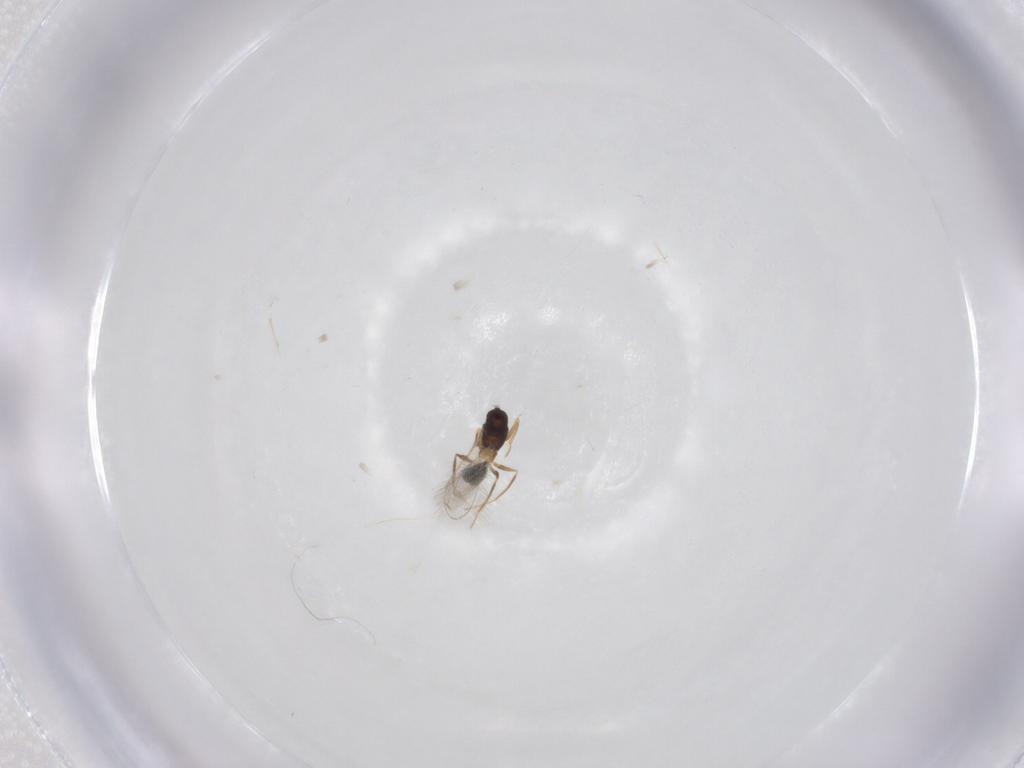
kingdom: Animalia
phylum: Arthropoda
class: Insecta
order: Hymenoptera
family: Mymaridae
